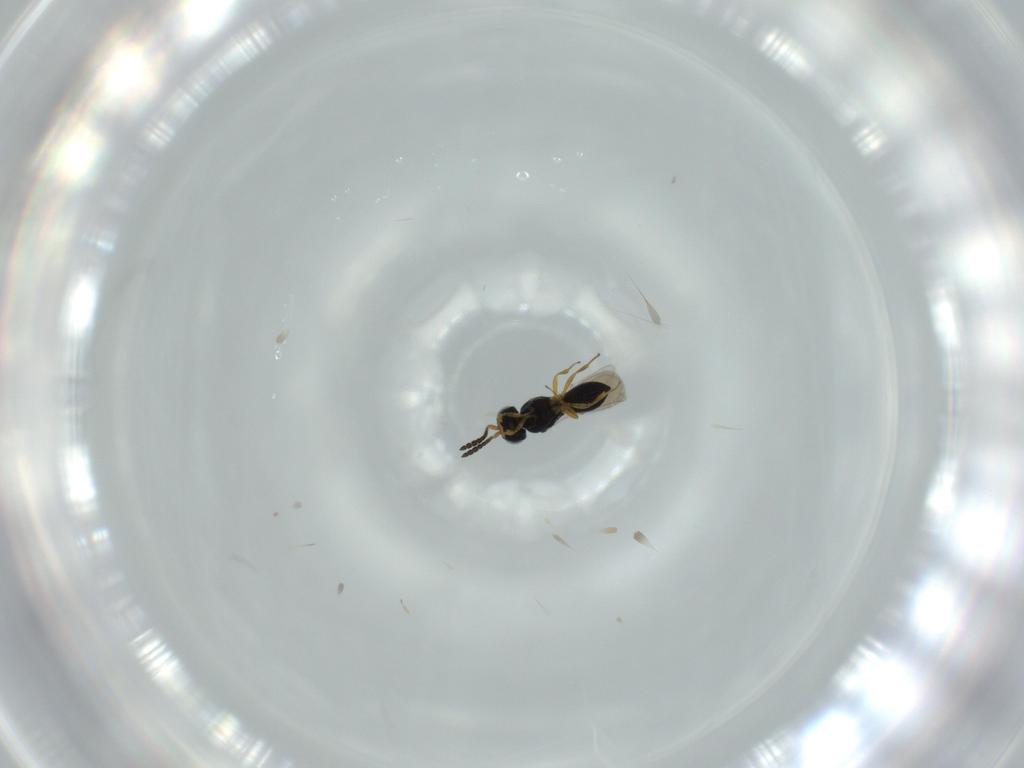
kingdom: Animalia
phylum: Arthropoda
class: Insecta
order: Hymenoptera
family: Scelionidae
